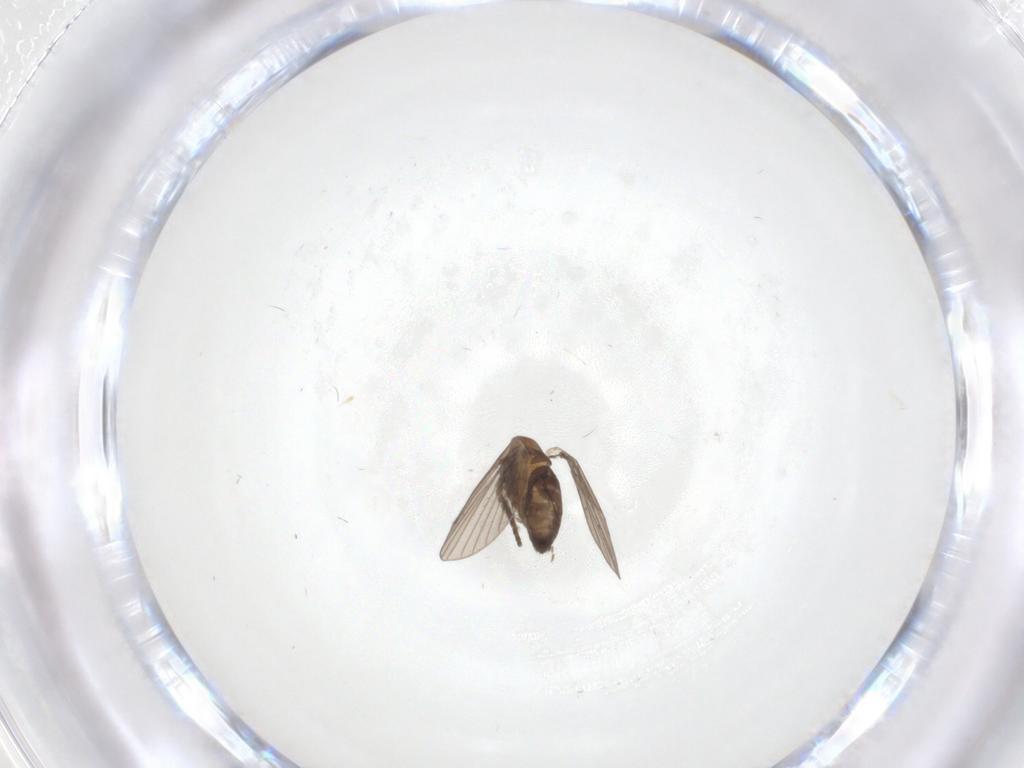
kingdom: Animalia
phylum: Arthropoda
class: Insecta
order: Diptera
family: Psychodidae
